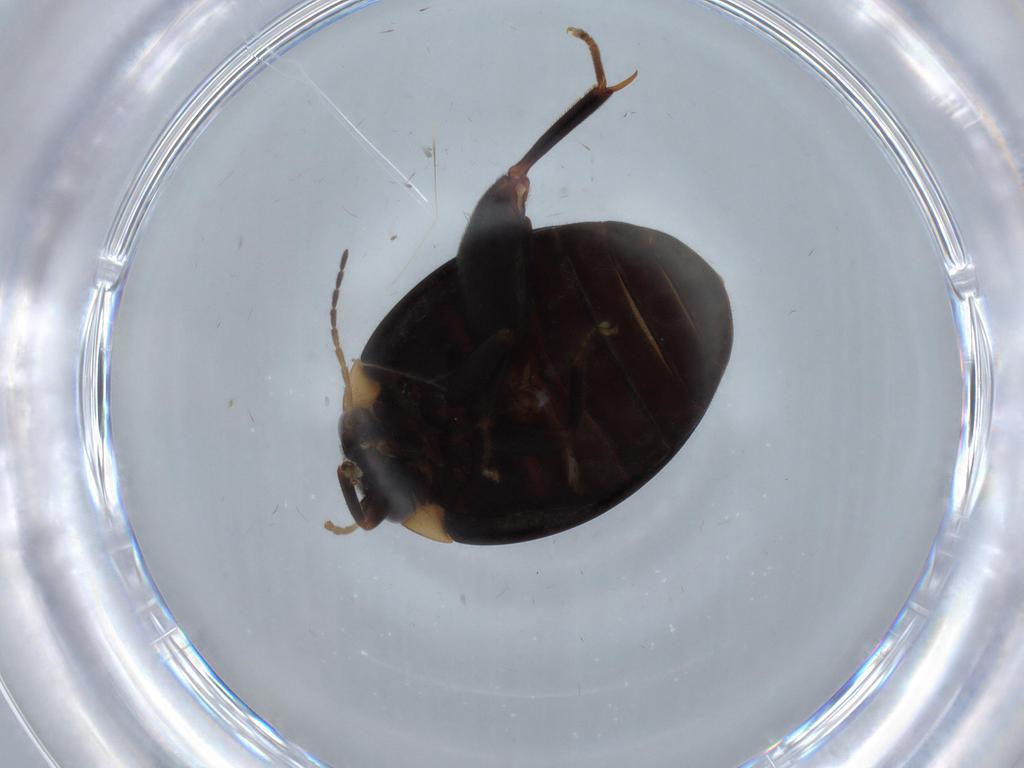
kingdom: Animalia
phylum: Arthropoda
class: Insecta
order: Coleoptera
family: Scirtidae
